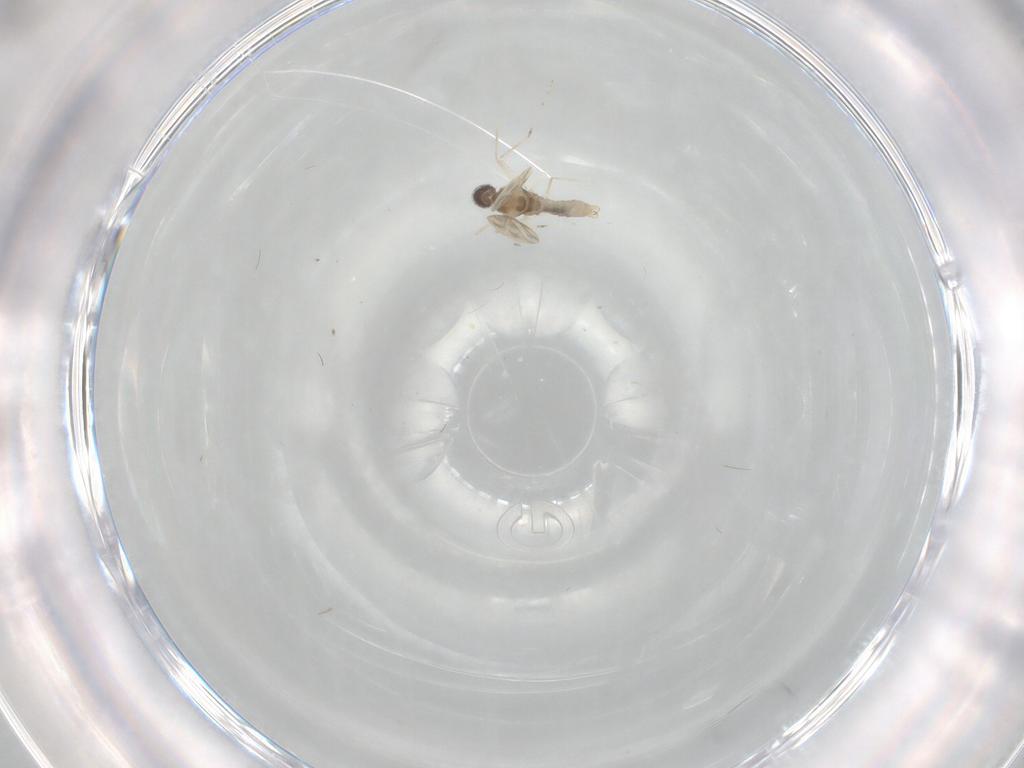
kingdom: Animalia
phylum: Arthropoda
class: Insecta
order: Diptera
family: Cecidomyiidae
